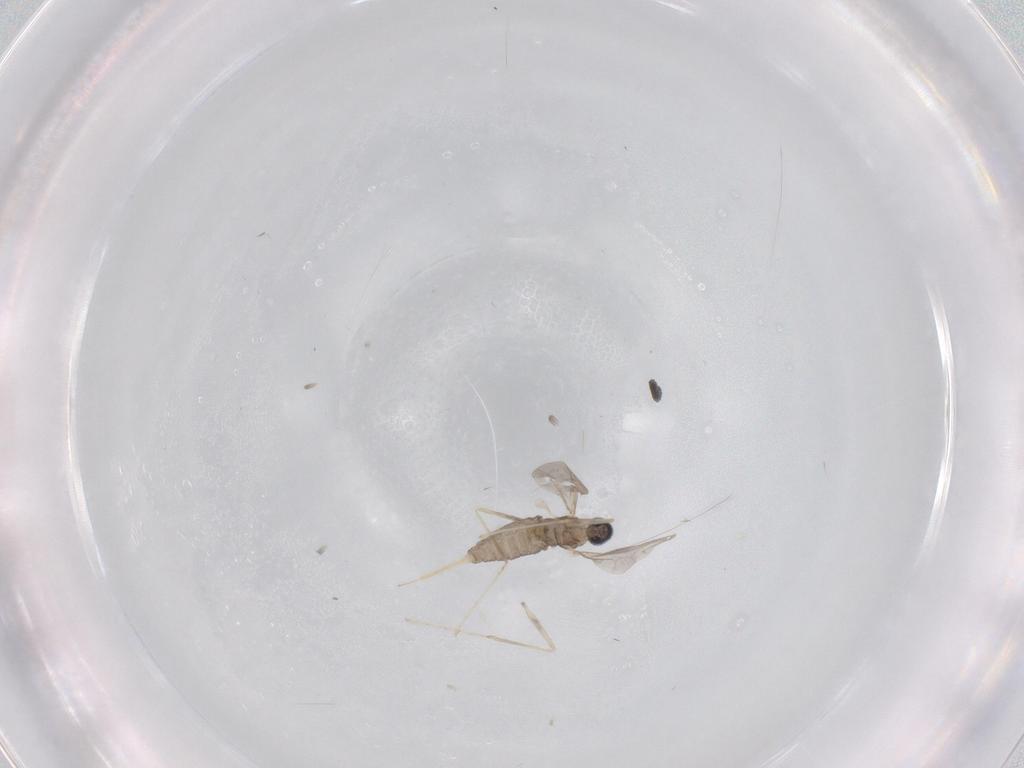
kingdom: Animalia
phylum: Arthropoda
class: Insecta
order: Diptera
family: Cecidomyiidae
